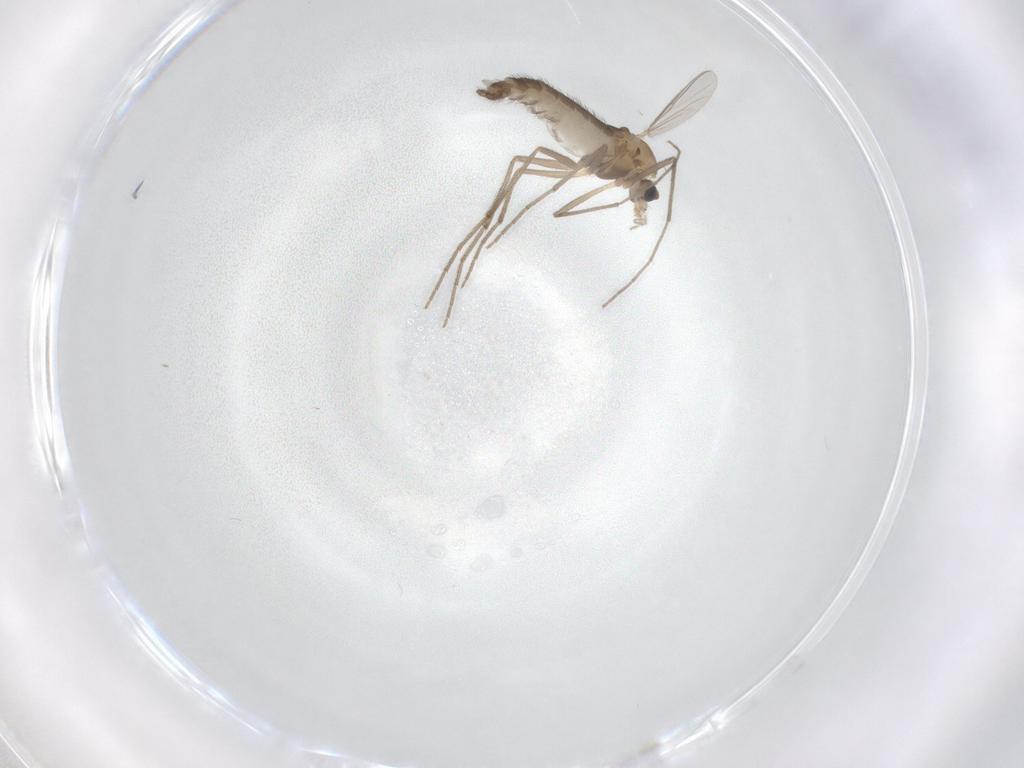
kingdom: Animalia
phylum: Arthropoda
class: Insecta
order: Diptera
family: Chironomidae
